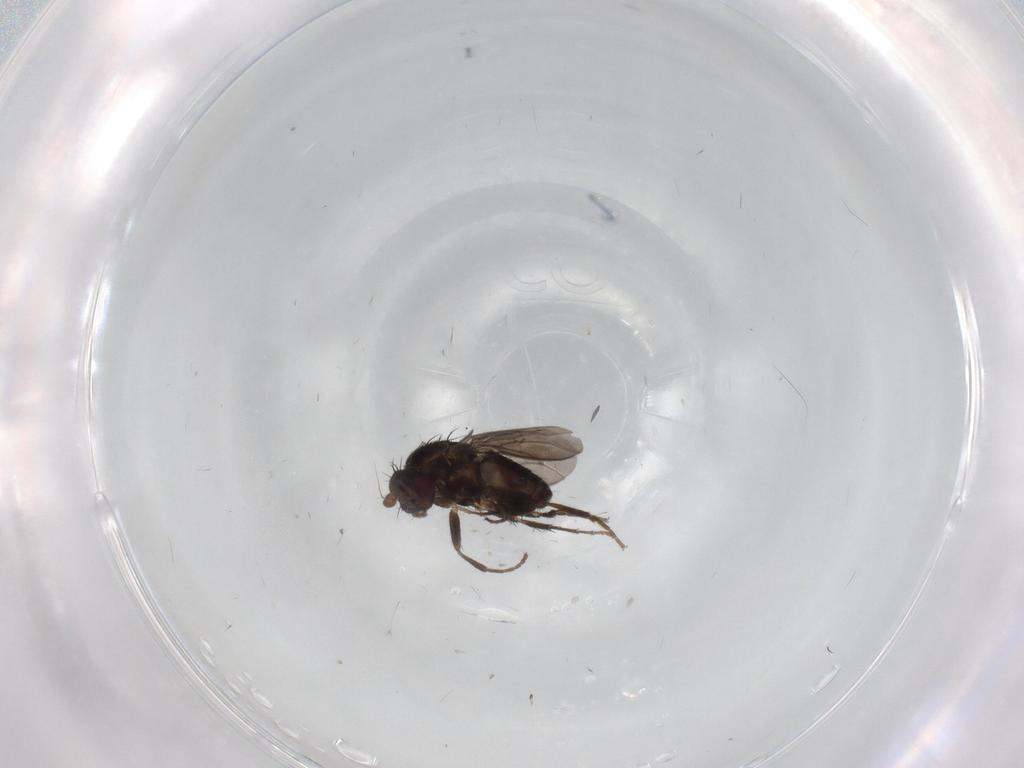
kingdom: Animalia
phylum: Arthropoda
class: Insecta
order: Diptera
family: Sphaeroceridae
